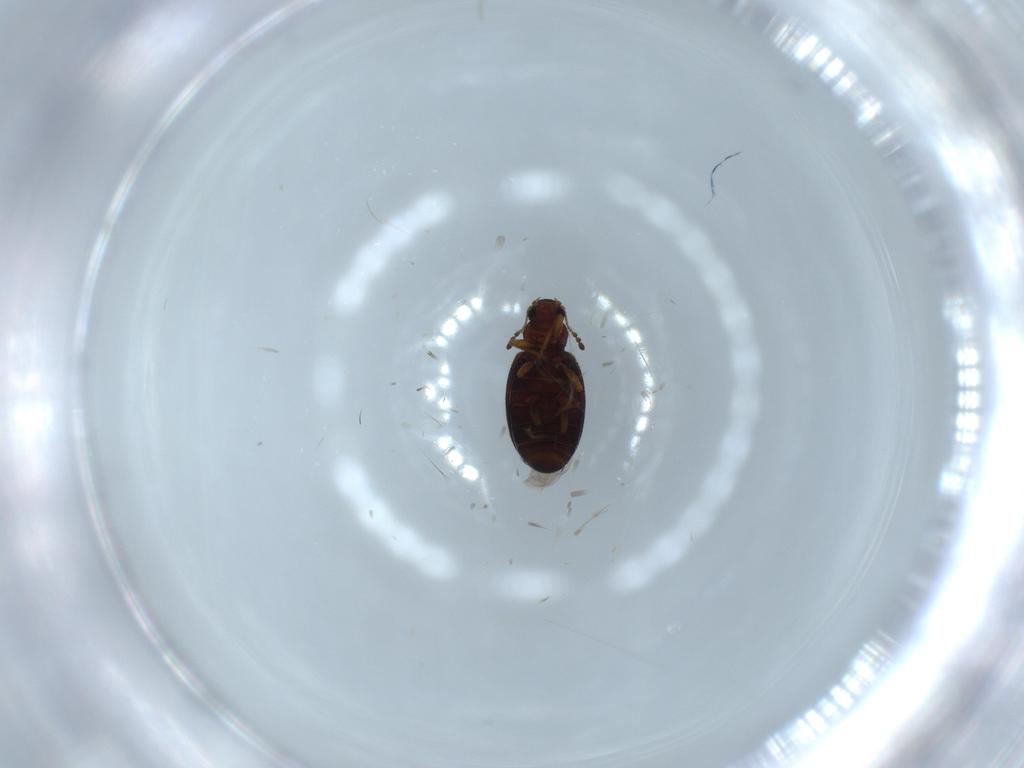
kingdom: Animalia
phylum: Arthropoda
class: Insecta
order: Coleoptera
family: Latridiidae
